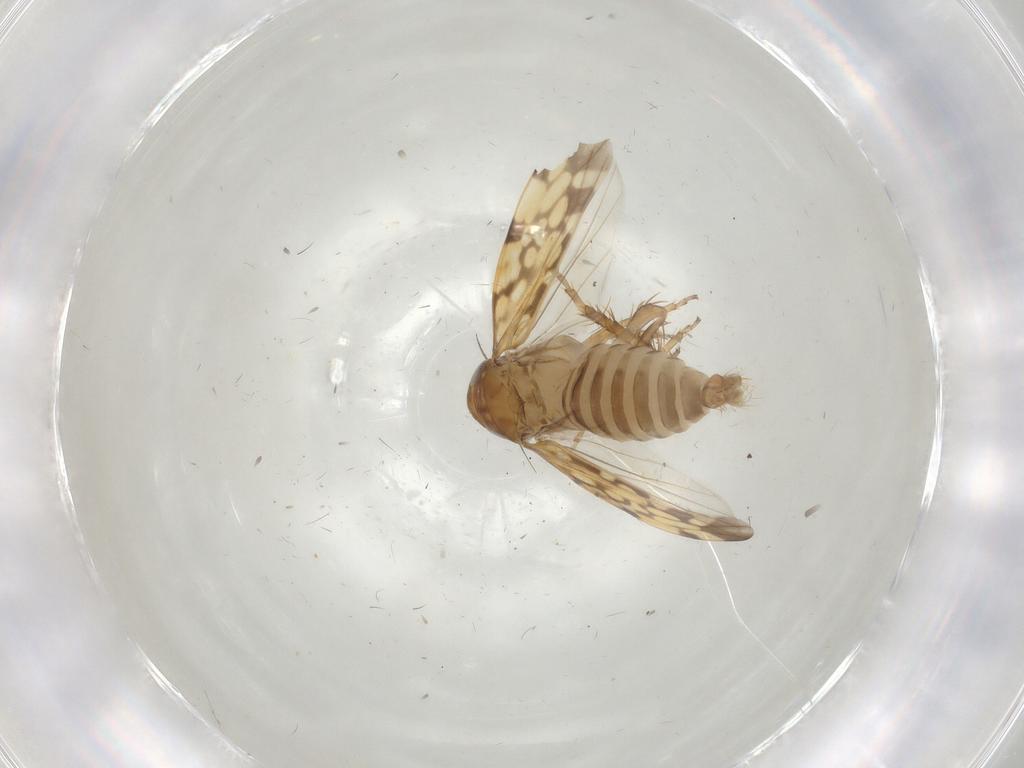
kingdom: Animalia
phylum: Arthropoda
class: Insecta
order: Hemiptera
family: Cicadellidae
